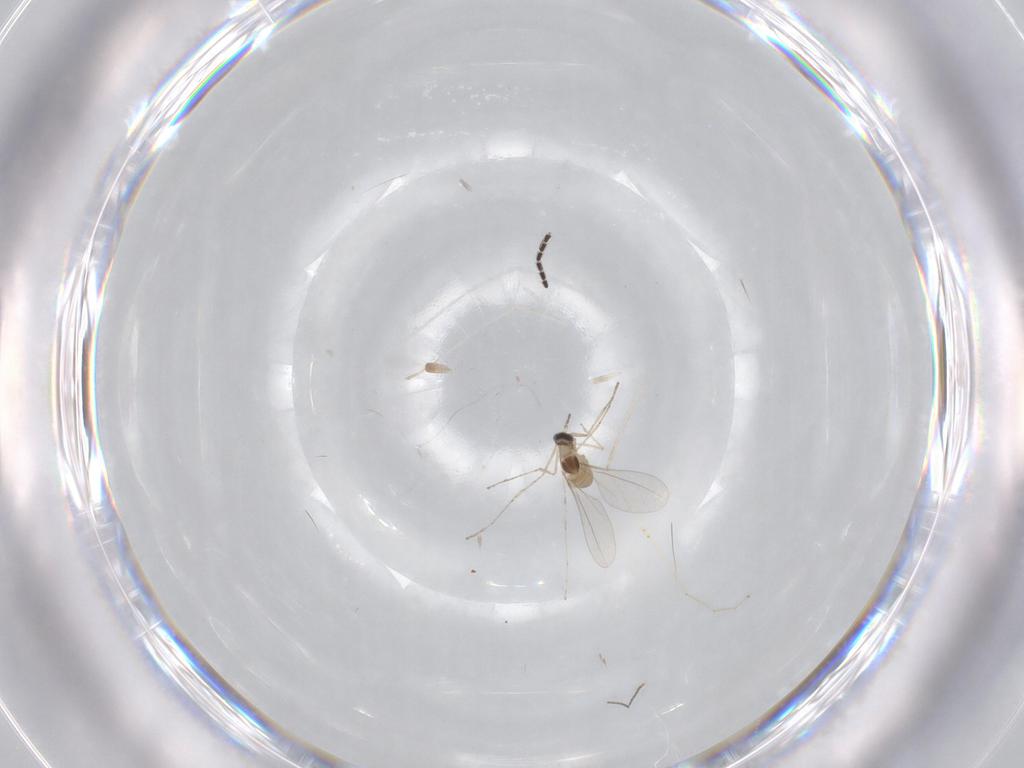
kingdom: Animalia
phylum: Arthropoda
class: Insecta
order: Diptera
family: Cecidomyiidae
